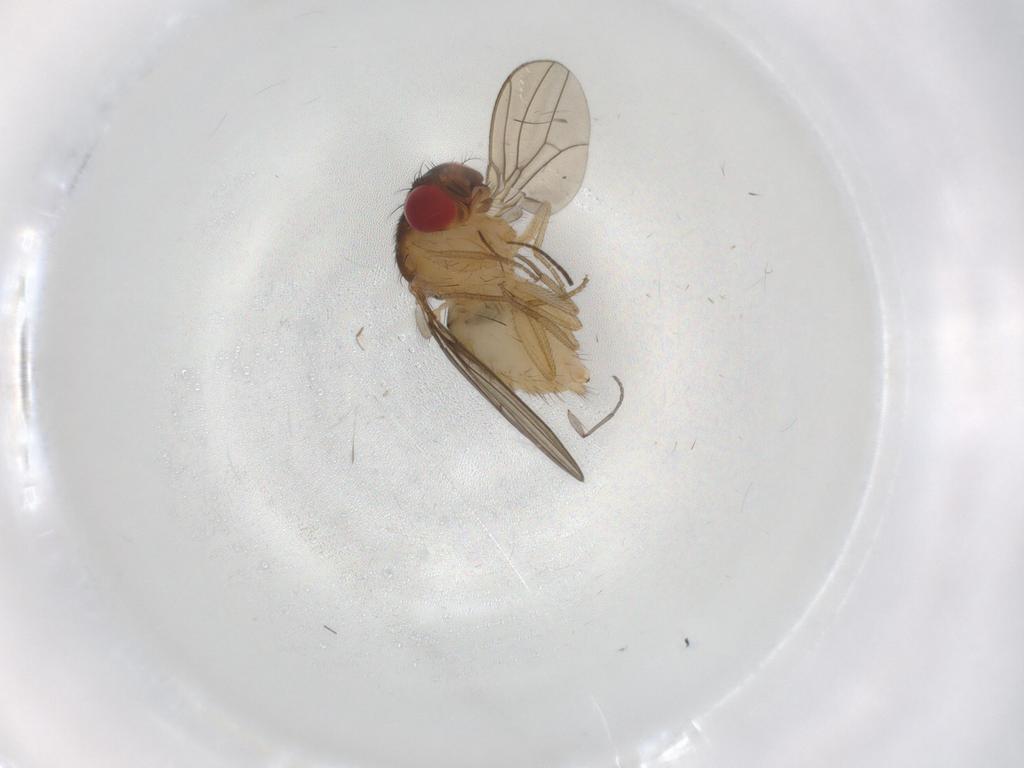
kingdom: Animalia
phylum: Arthropoda
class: Insecta
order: Diptera
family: Drosophilidae
